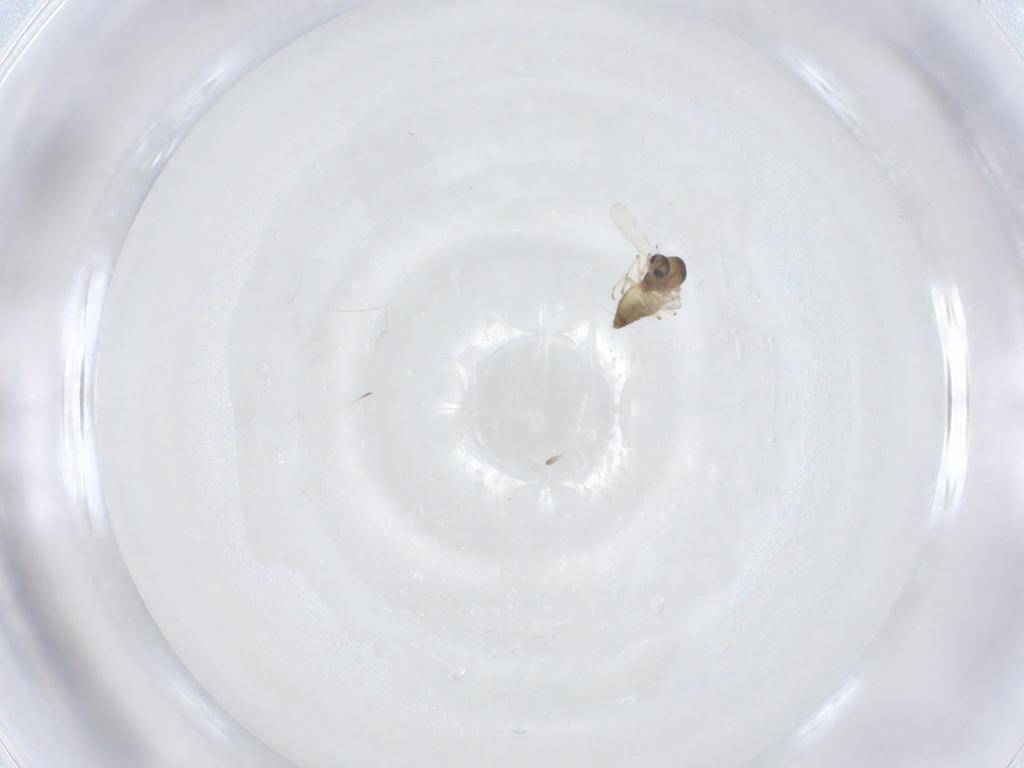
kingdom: Animalia
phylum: Arthropoda
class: Insecta
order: Diptera
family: Chironomidae
